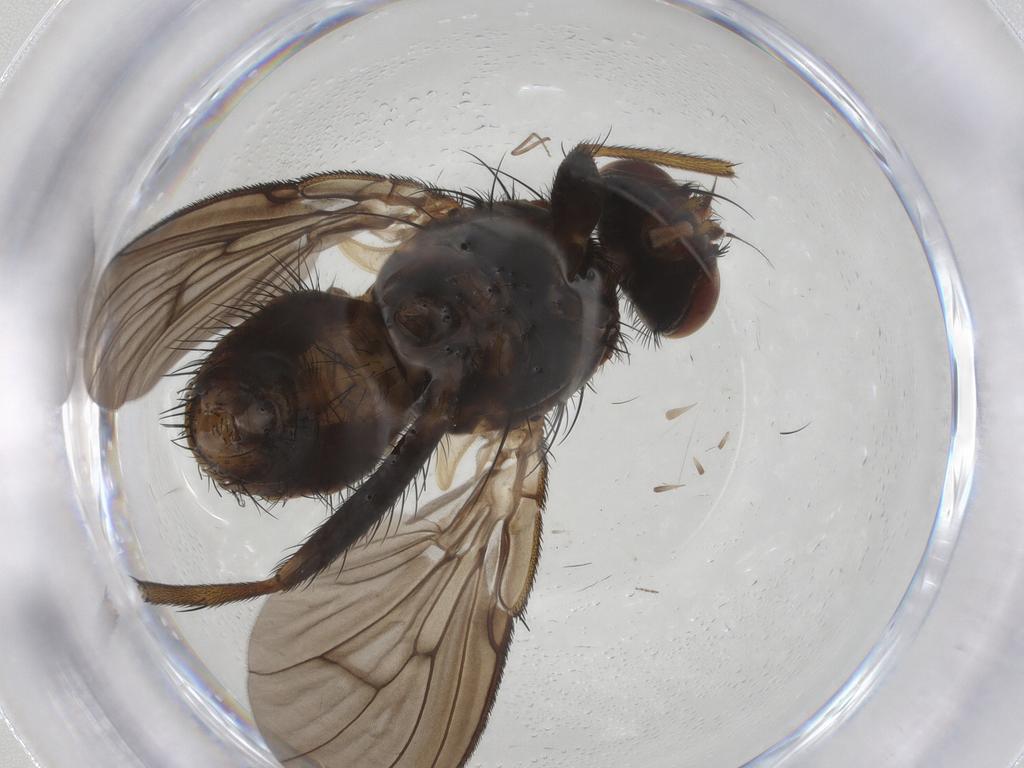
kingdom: Animalia
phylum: Arthropoda
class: Insecta
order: Diptera
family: Muscidae
